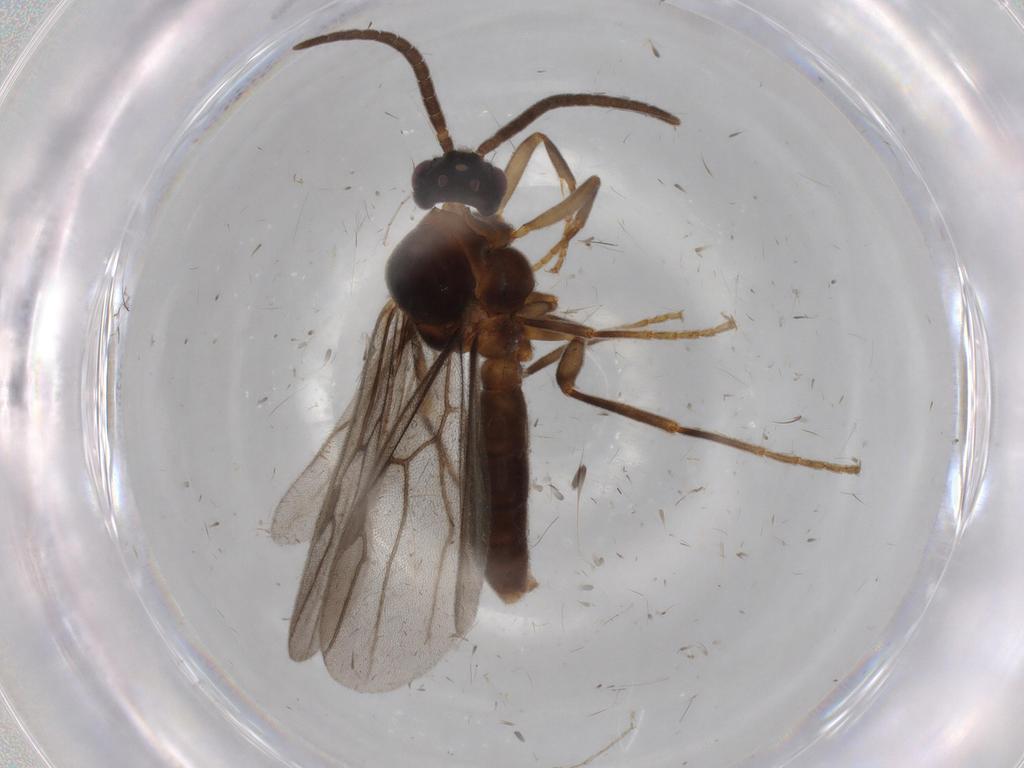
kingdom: Animalia
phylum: Arthropoda
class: Insecta
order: Hymenoptera
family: Formicidae
